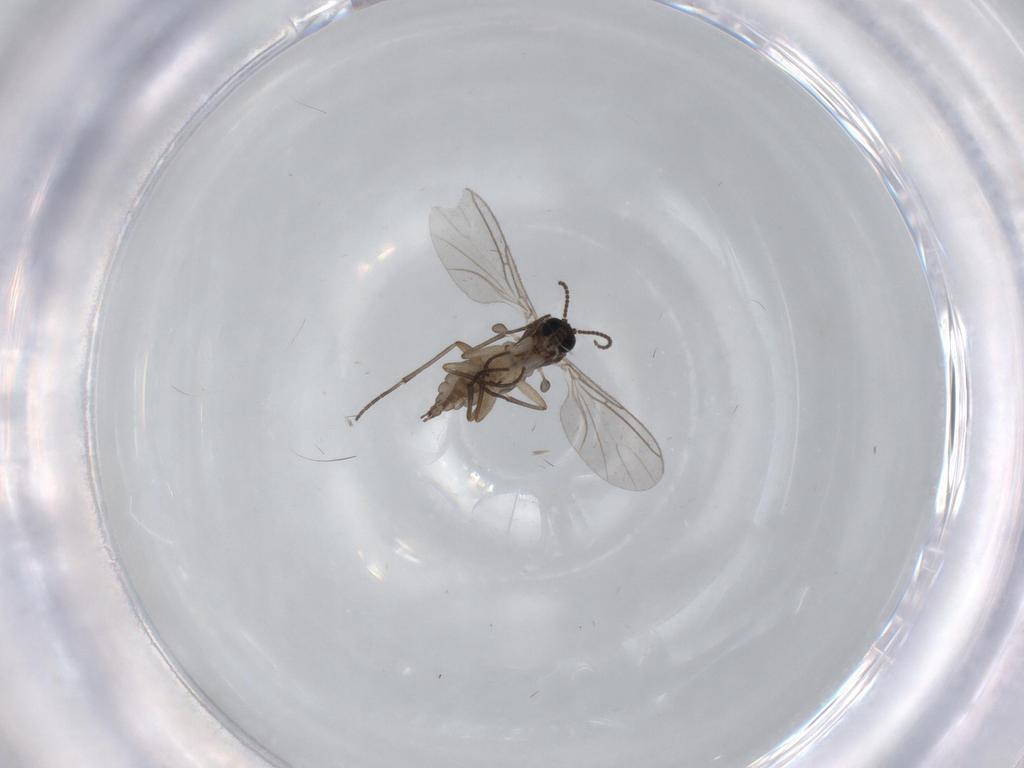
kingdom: Animalia
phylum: Arthropoda
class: Insecta
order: Diptera
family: Sciaridae
